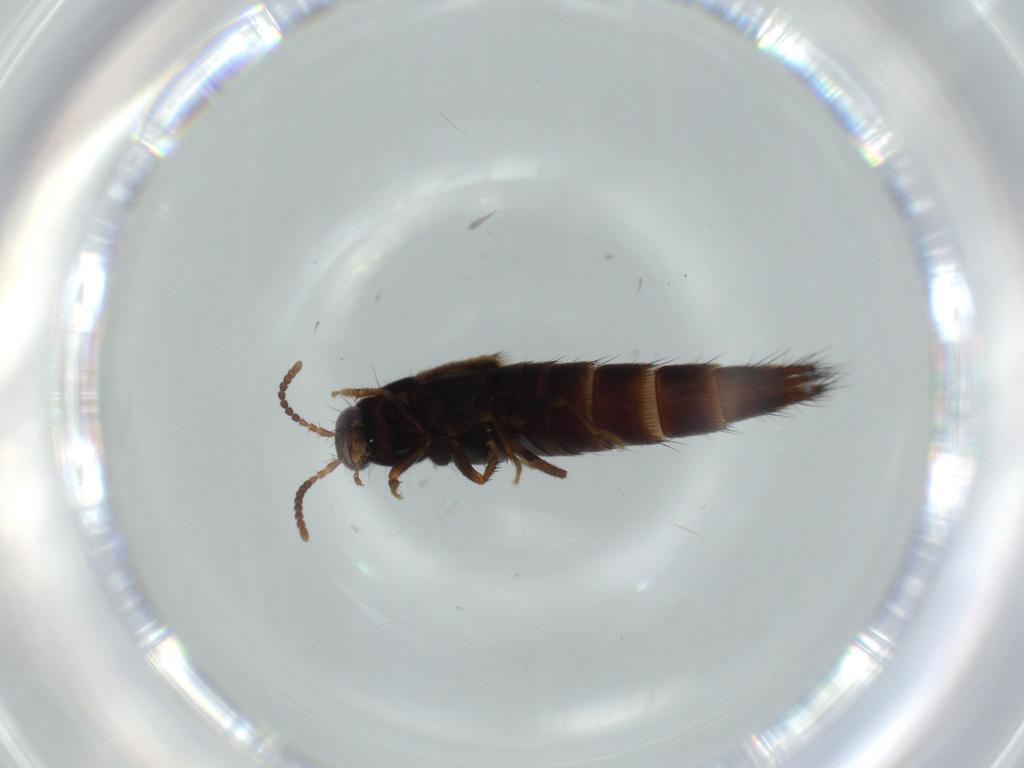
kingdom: Animalia
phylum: Arthropoda
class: Insecta
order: Coleoptera
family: Staphylinidae
